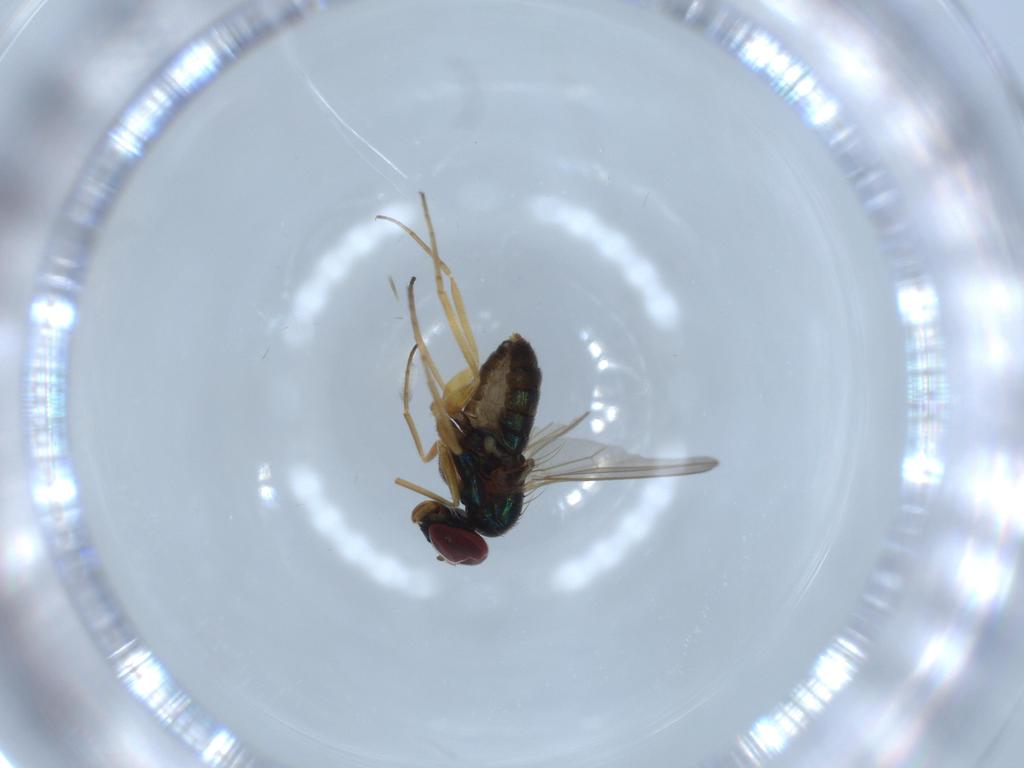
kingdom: Animalia
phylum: Arthropoda
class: Insecta
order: Diptera
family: Dolichopodidae
